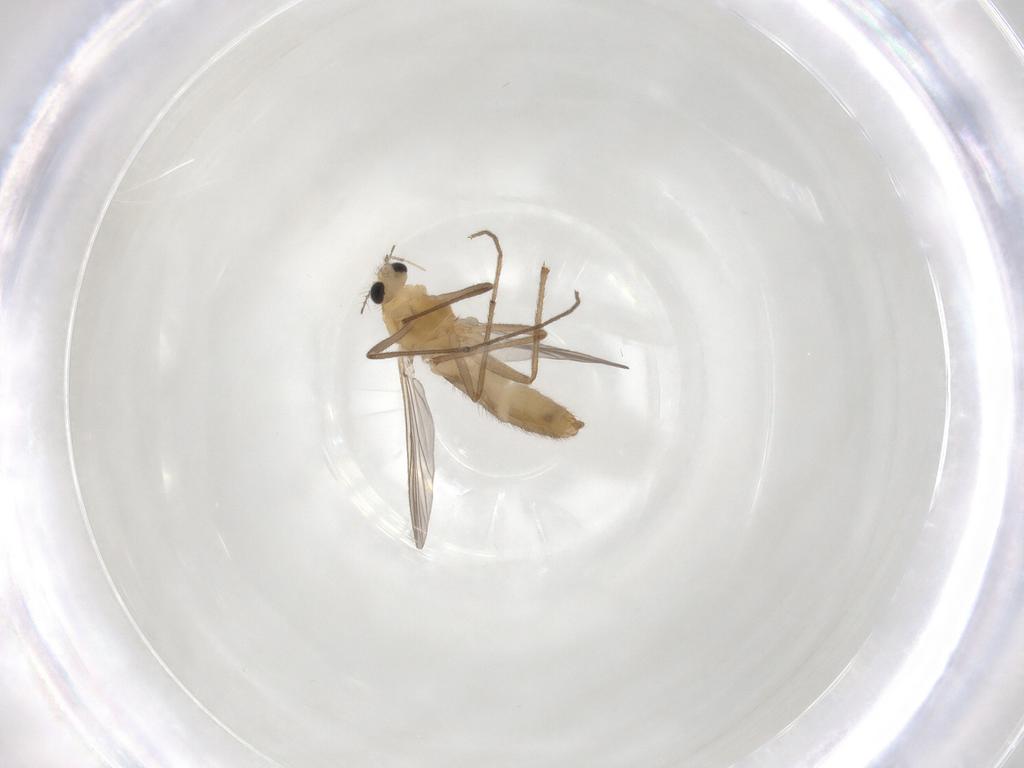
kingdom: Animalia
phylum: Arthropoda
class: Insecta
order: Diptera
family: Chironomidae
